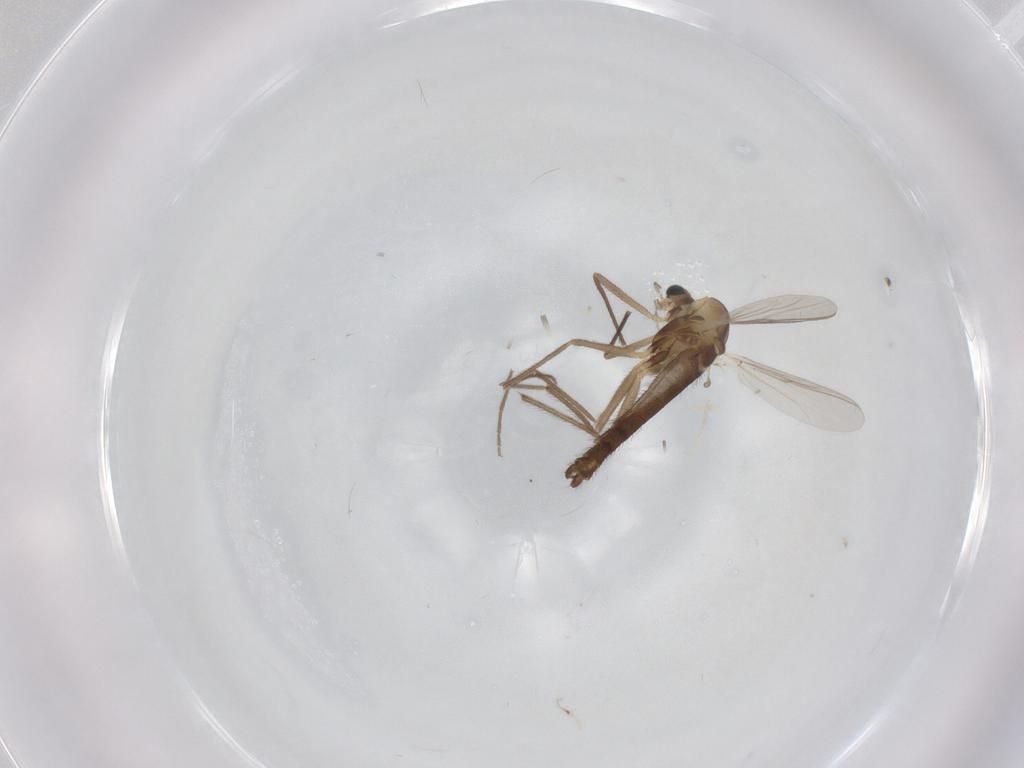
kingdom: Animalia
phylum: Arthropoda
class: Insecta
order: Diptera
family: Chironomidae
